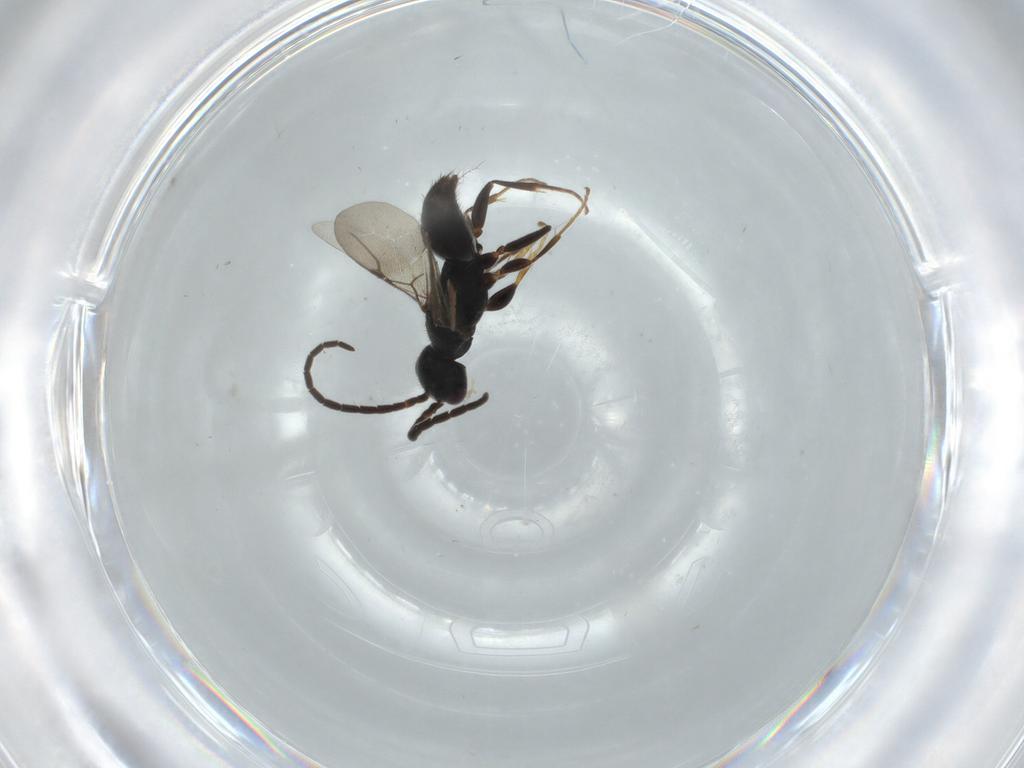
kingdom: Animalia
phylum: Arthropoda
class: Insecta
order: Hymenoptera
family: Bethylidae
